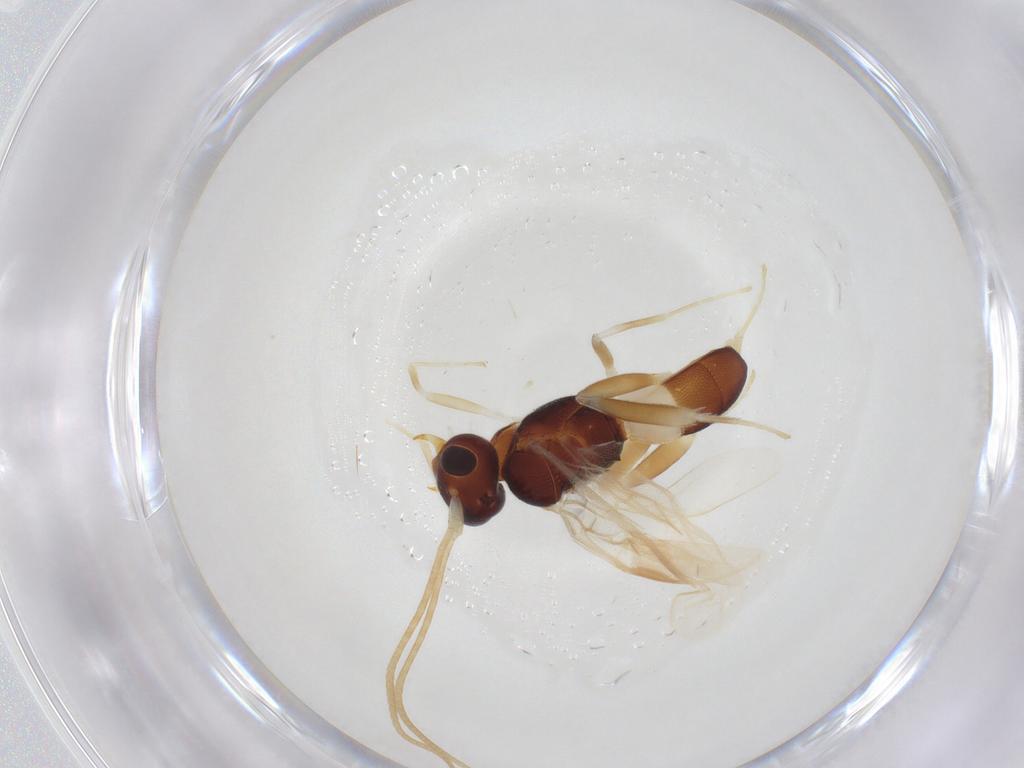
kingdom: Animalia
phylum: Arthropoda
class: Insecta
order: Hymenoptera
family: Braconidae
